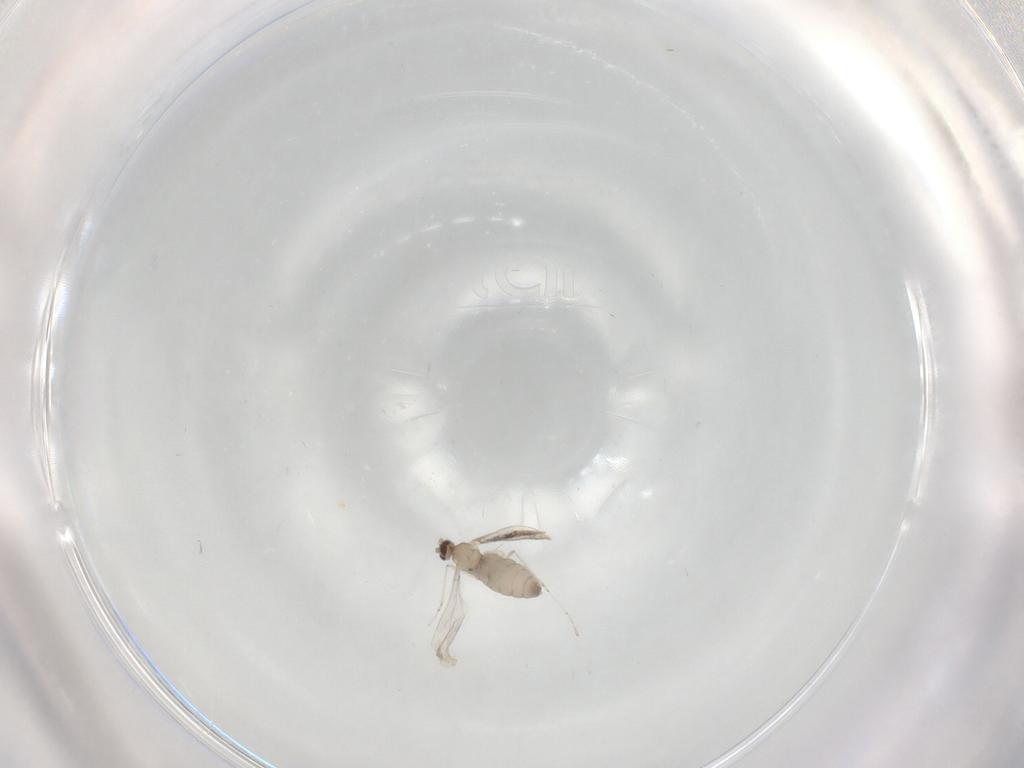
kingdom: Animalia
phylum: Arthropoda
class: Insecta
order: Diptera
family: Cecidomyiidae
